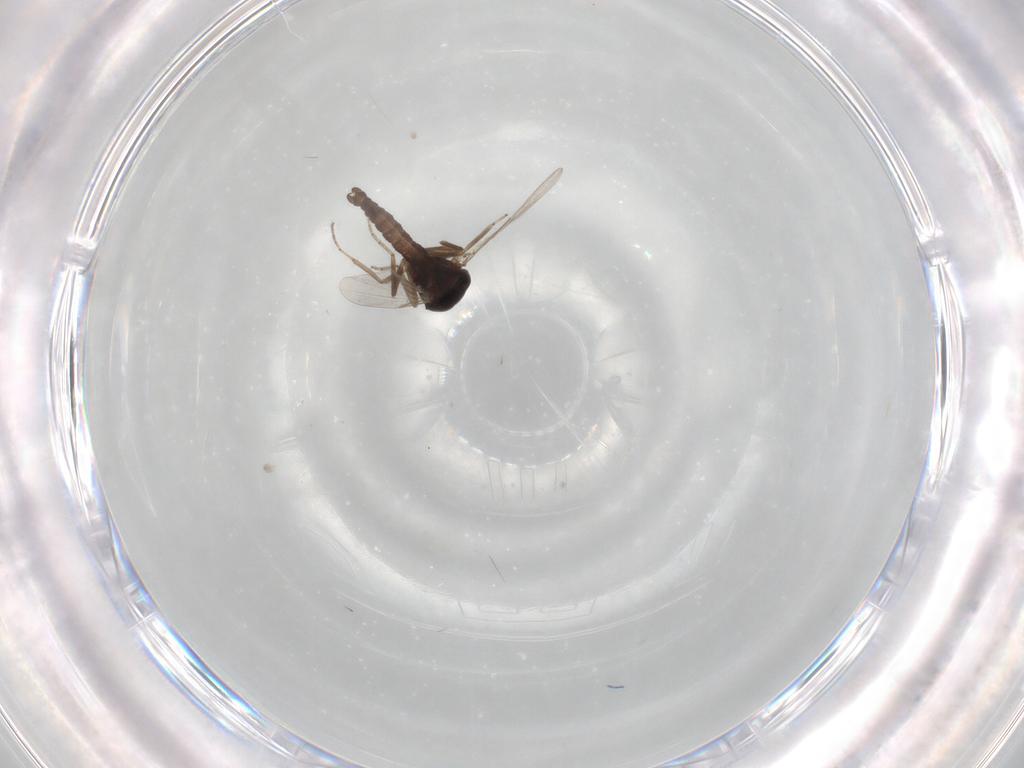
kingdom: Animalia
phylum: Arthropoda
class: Insecta
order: Diptera
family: Ceratopogonidae
